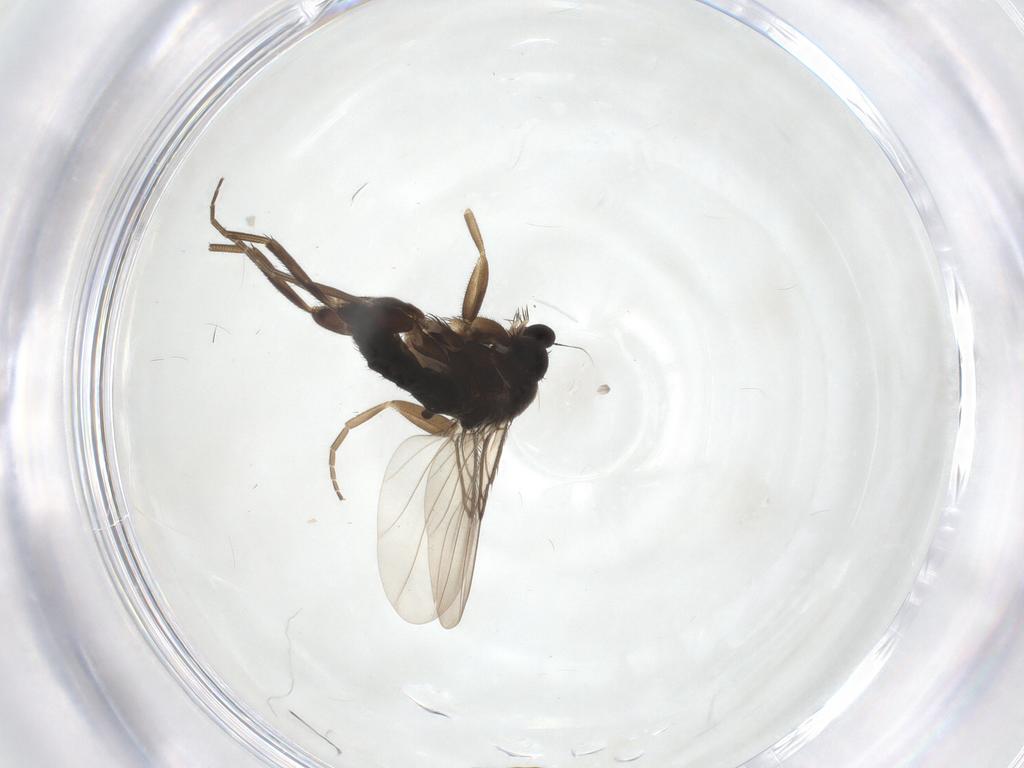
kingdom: Animalia
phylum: Arthropoda
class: Insecta
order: Diptera
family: Phoridae
